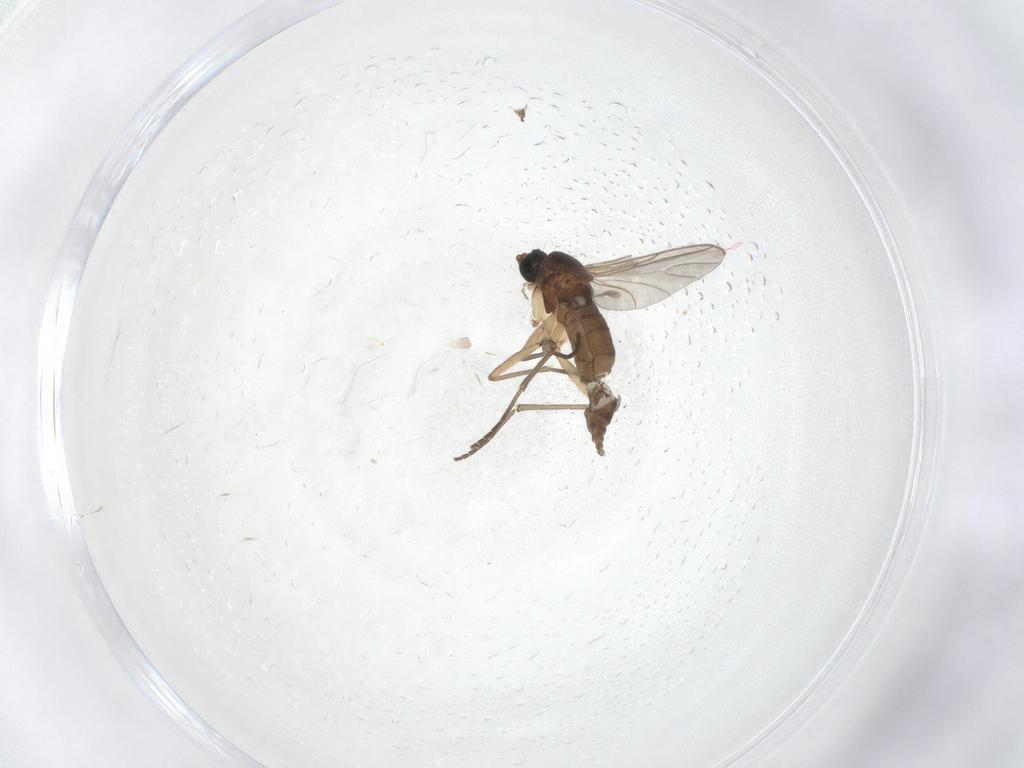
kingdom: Animalia
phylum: Arthropoda
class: Insecta
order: Diptera
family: Sciaridae
